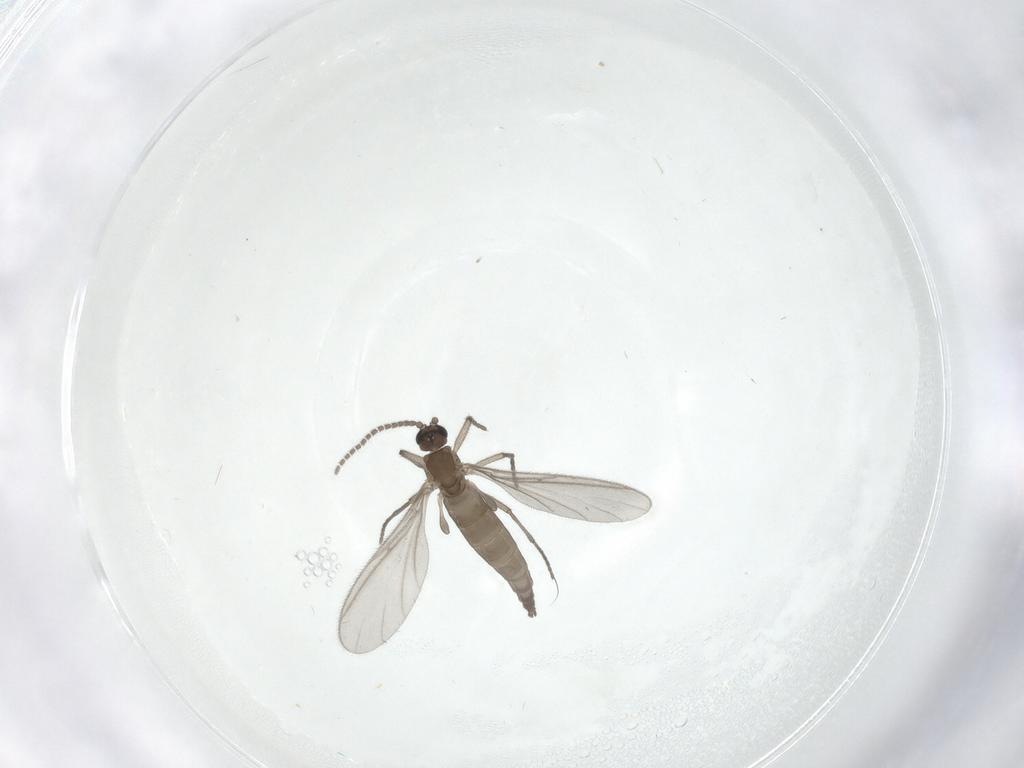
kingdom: Animalia
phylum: Arthropoda
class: Insecta
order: Diptera
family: Sciaridae
